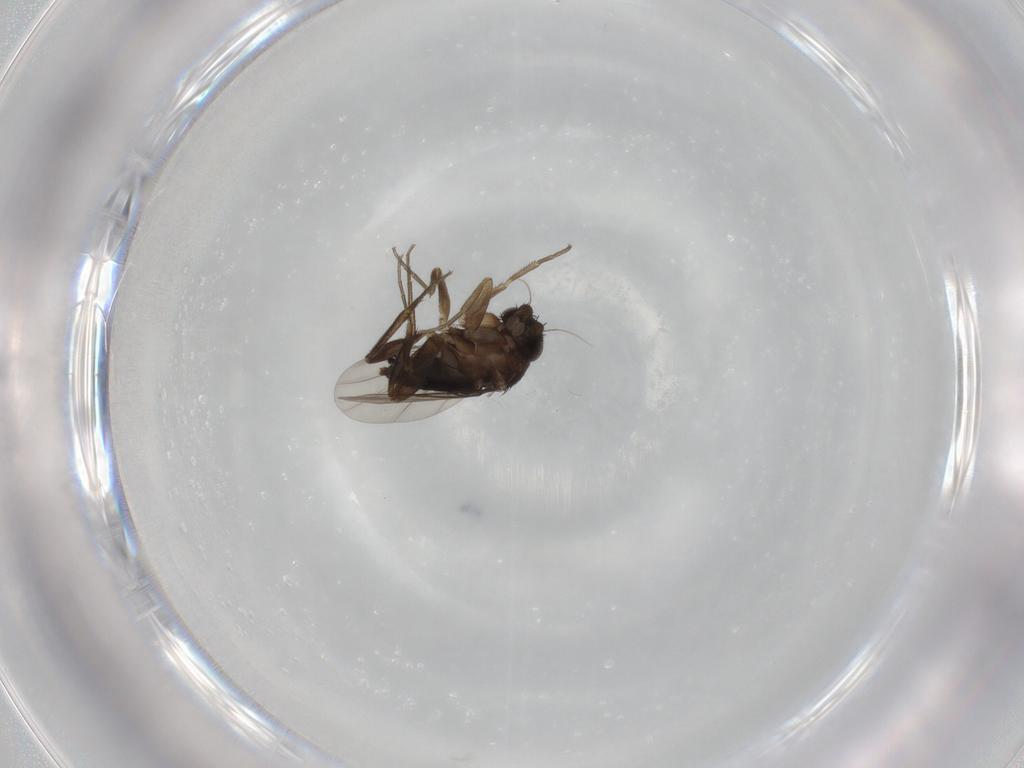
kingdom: Animalia
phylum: Arthropoda
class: Insecta
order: Diptera
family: Phoridae
